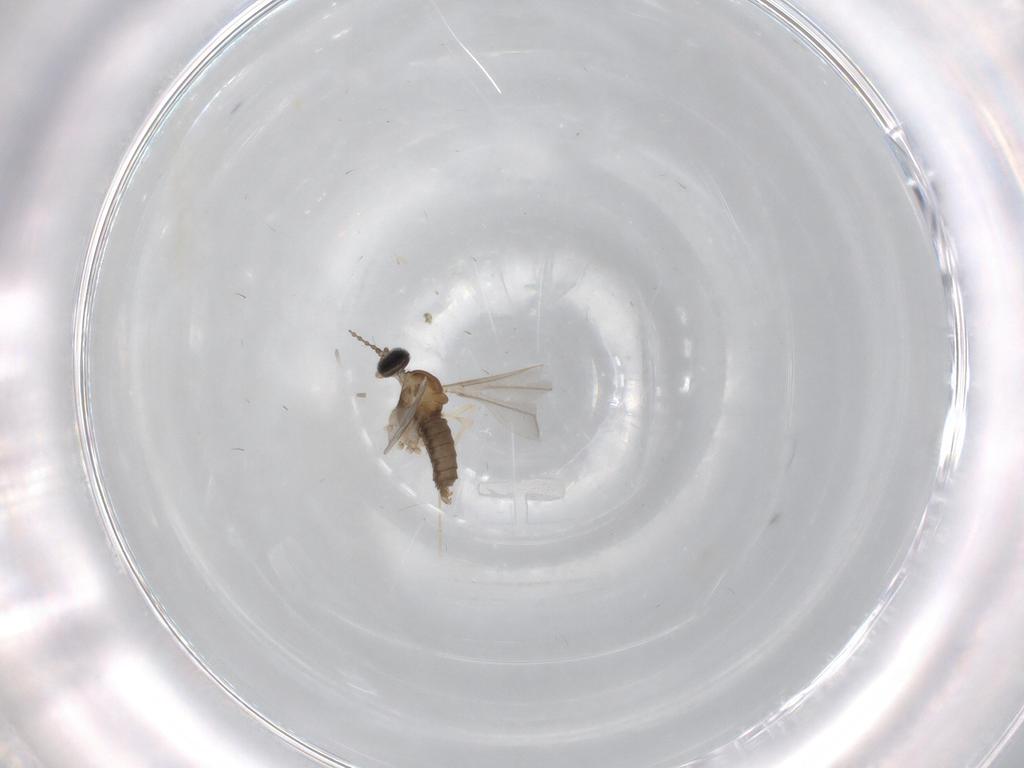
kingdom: Animalia
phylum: Arthropoda
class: Insecta
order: Diptera
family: Cecidomyiidae
